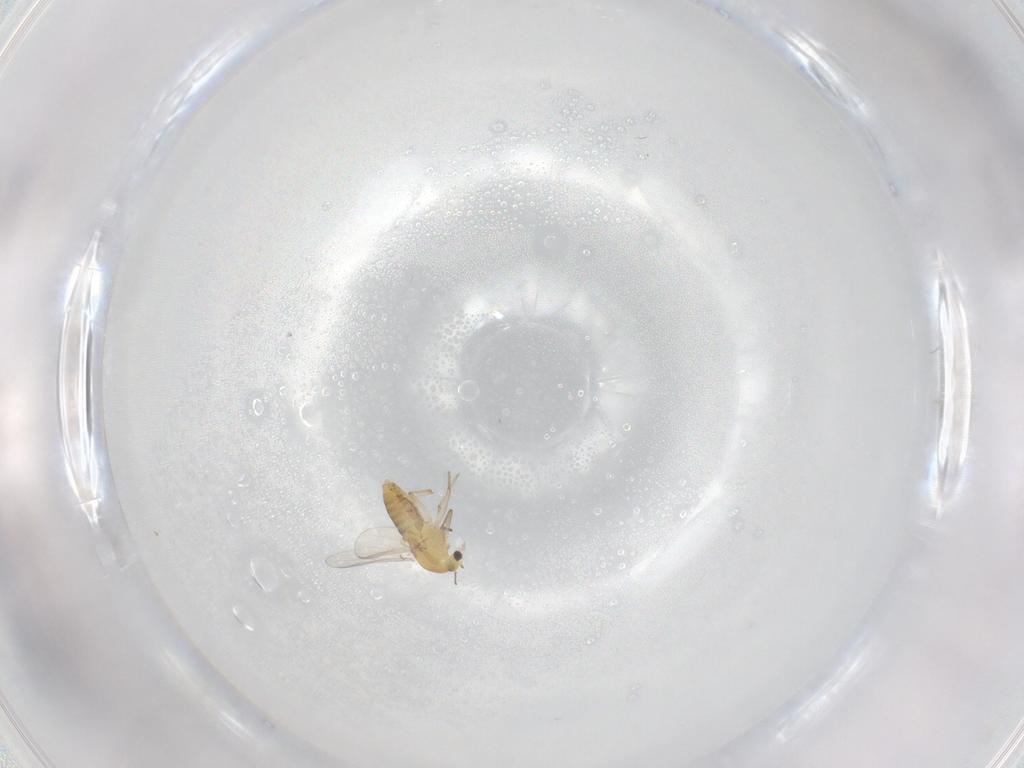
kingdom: Animalia
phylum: Arthropoda
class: Insecta
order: Diptera
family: Chironomidae
